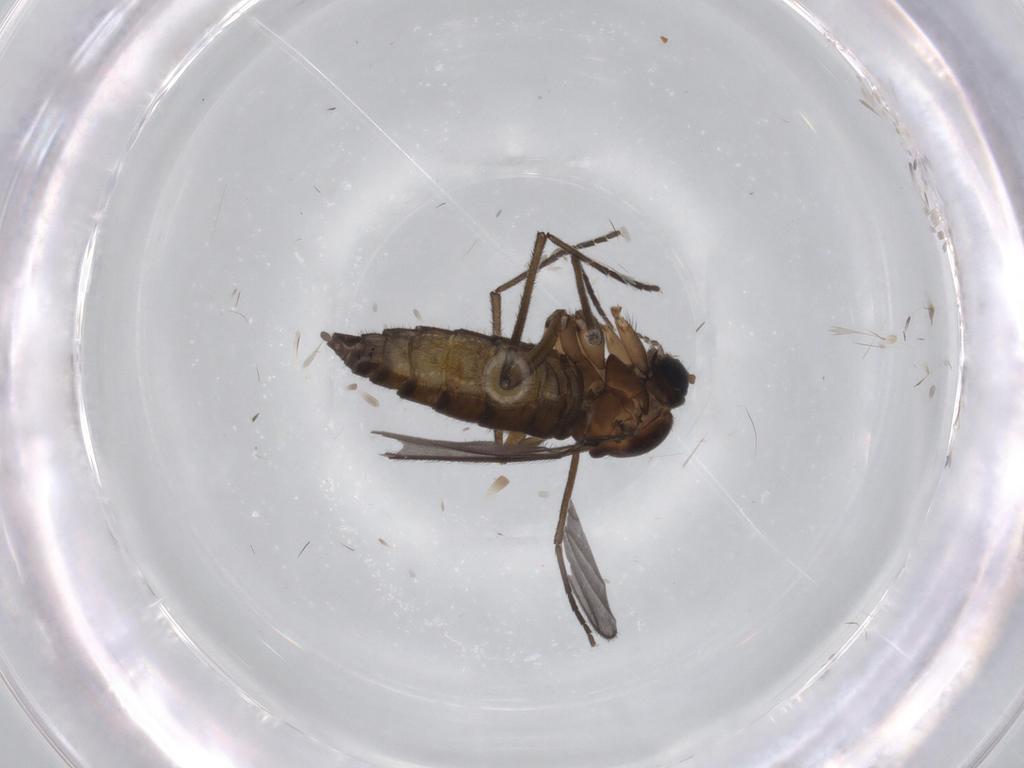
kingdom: Animalia
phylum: Arthropoda
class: Insecta
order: Diptera
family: Sciaridae
